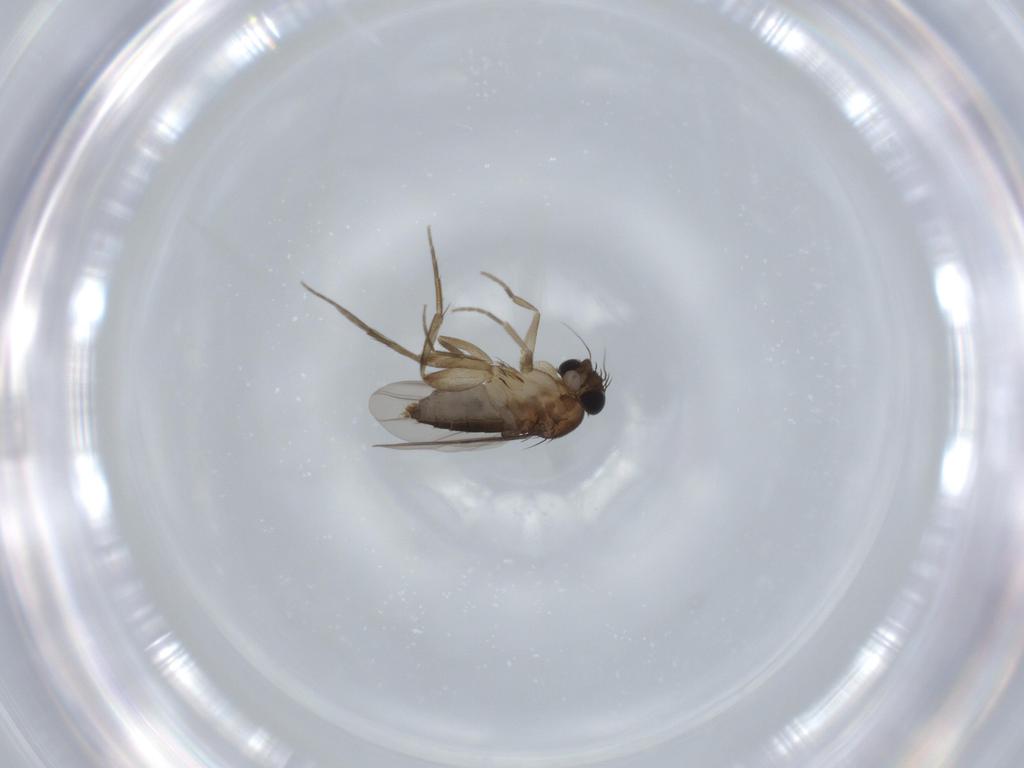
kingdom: Animalia
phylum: Arthropoda
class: Insecta
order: Diptera
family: Phoridae
